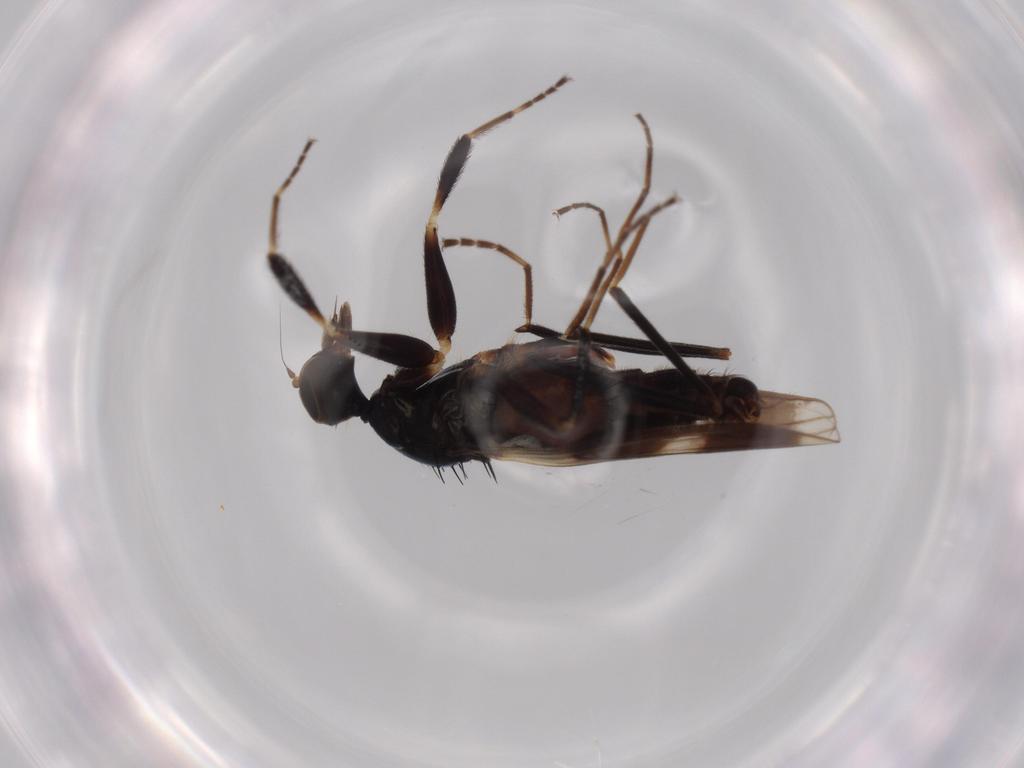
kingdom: Animalia
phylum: Arthropoda
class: Insecta
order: Diptera
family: Hybotidae
